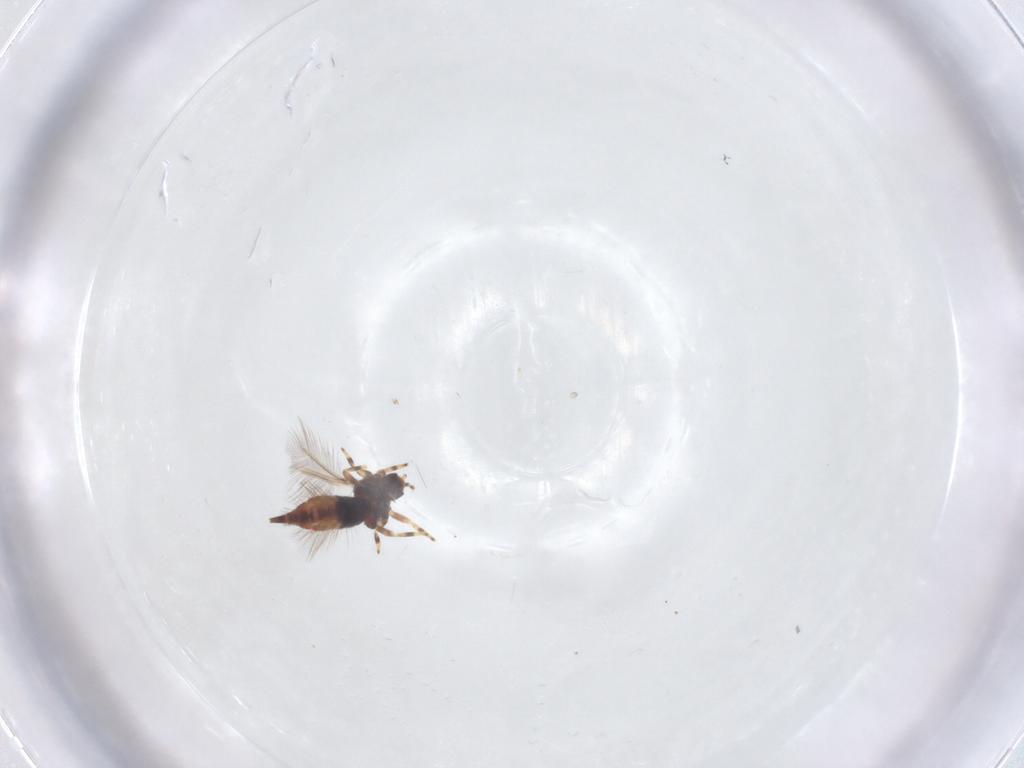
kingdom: Animalia
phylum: Arthropoda
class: Insecta
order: Thysanoptera
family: Phlaeothripidae
